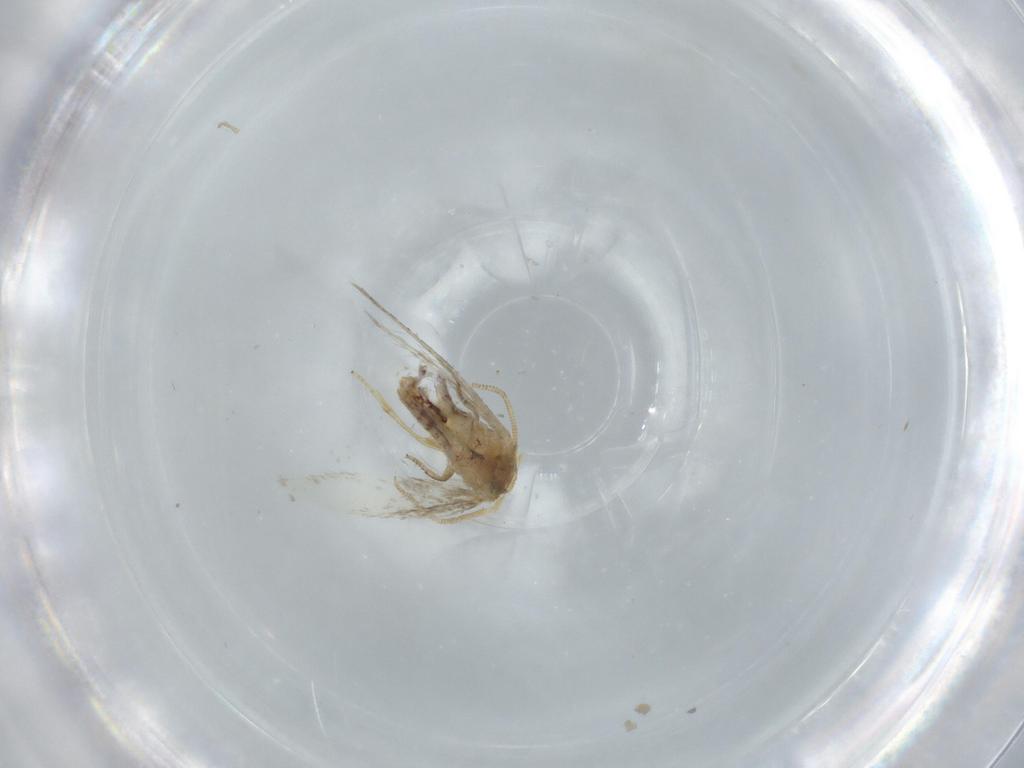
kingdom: Animalia
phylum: Arthropoda
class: Insecta
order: Lepidoptera
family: Nepticulidae
